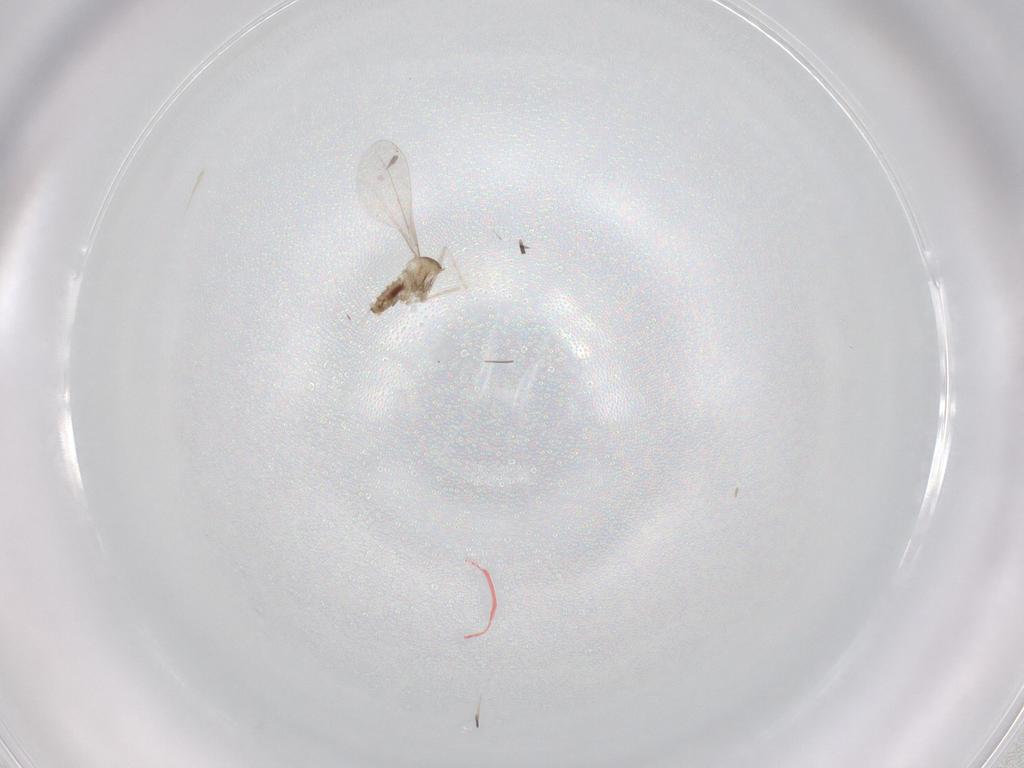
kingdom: Animalia
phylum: Arthropoda
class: Insecta
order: Diptera
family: Cecidomyiidae
